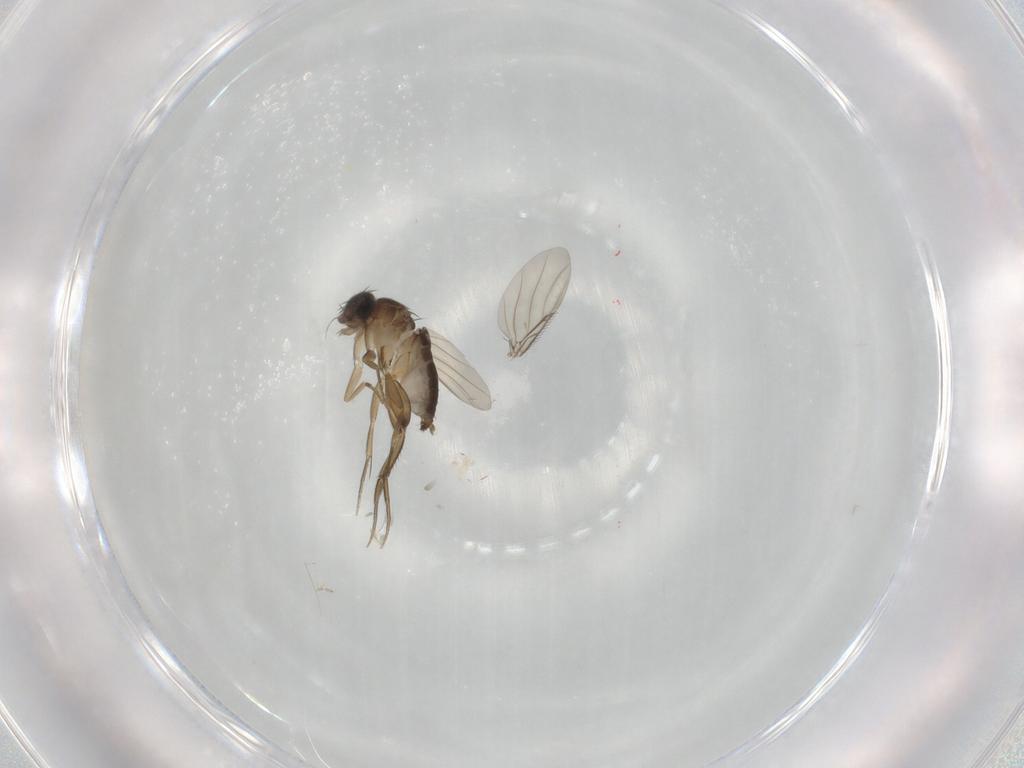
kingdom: Animalia
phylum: Arthropoda
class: Insecta
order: Diptera
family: Phoridae
